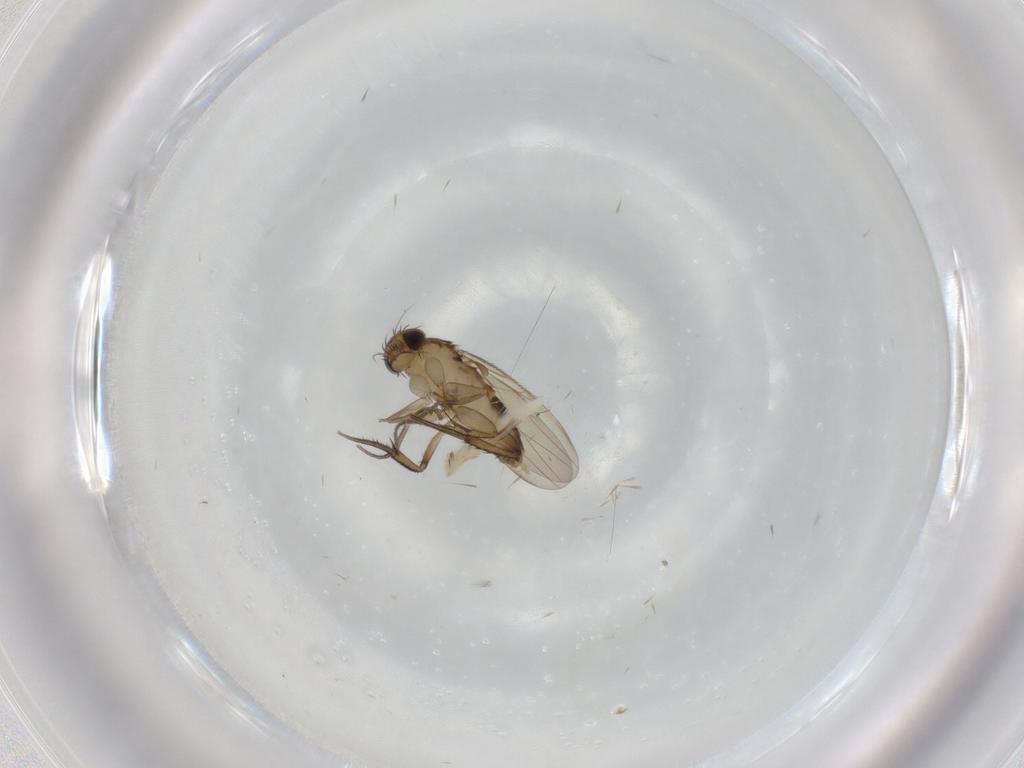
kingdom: Animalia
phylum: Arthropoda
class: Insecta
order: Diptera
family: Phoridae
